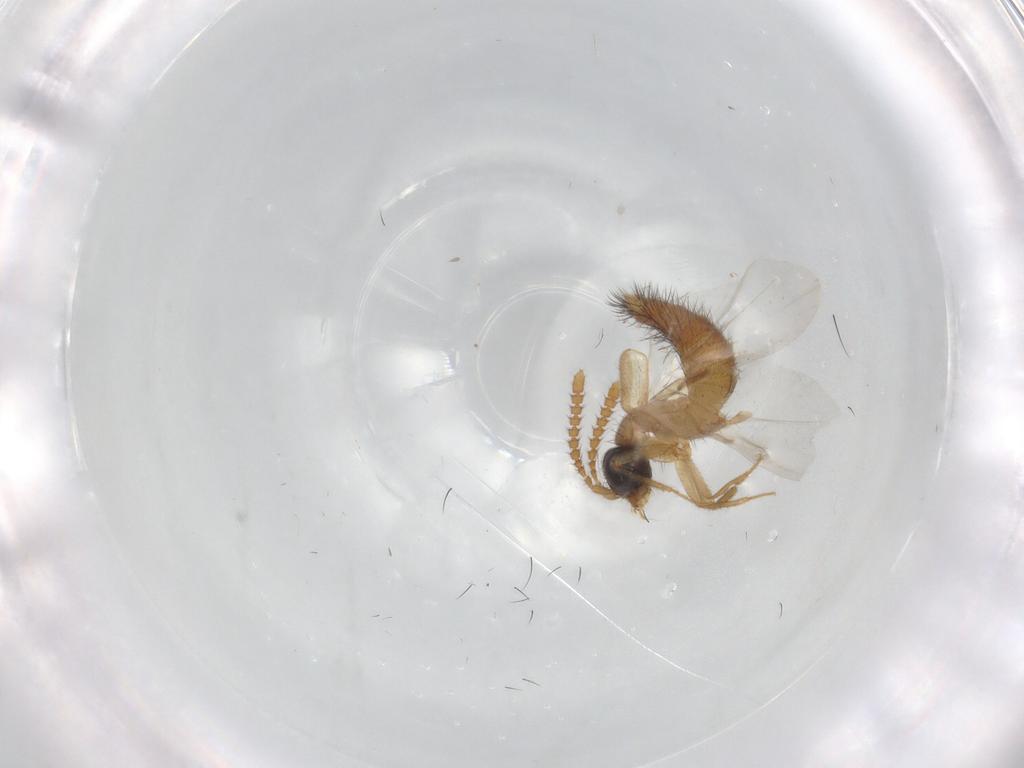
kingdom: Animalia
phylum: Arthropoda
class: Insecta
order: Coleoptera
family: Staphylinidae
